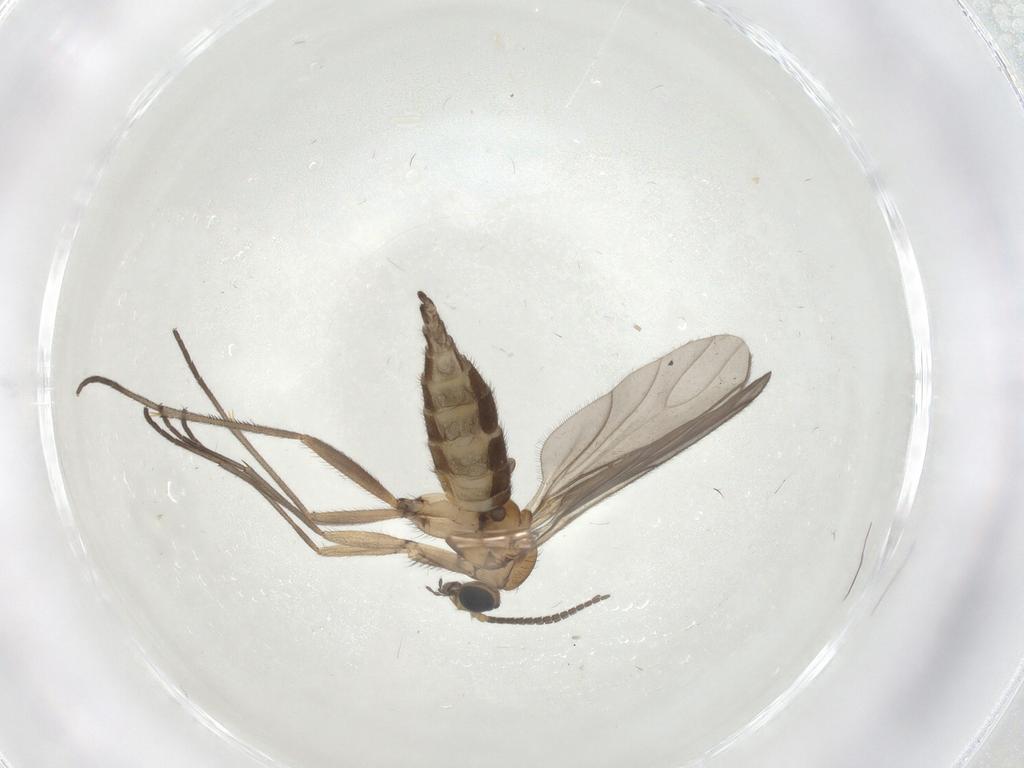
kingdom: Animalia
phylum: Arthropoda
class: Insecta
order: Diptera
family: Sciaridae
